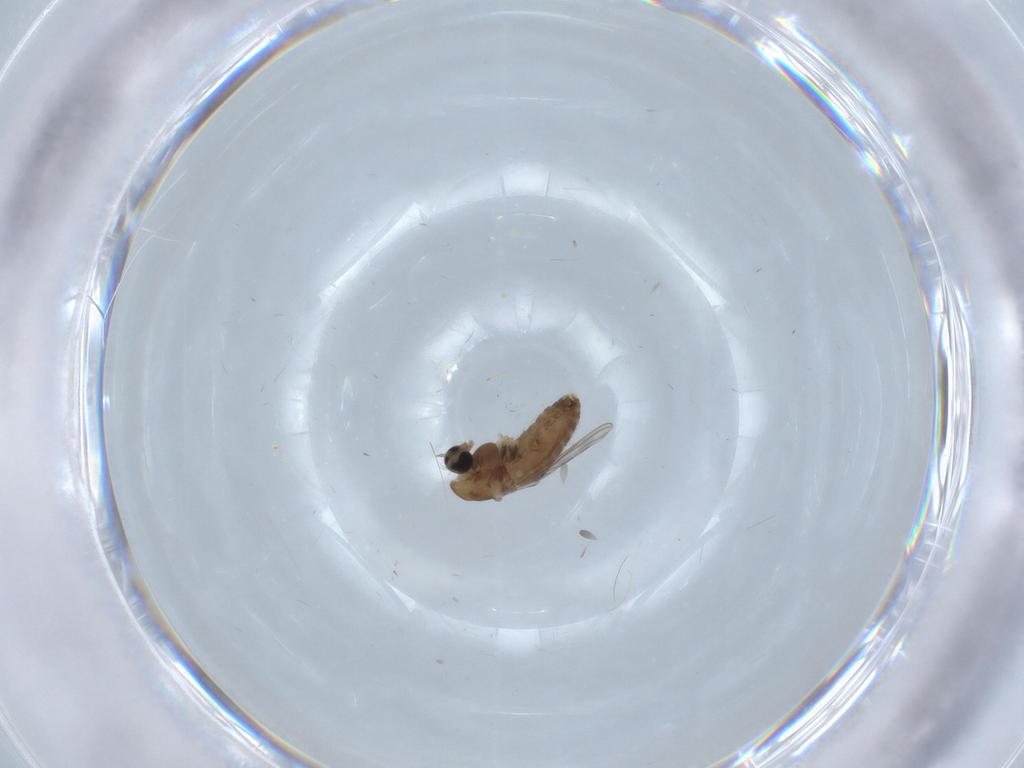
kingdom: Animalia
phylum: Arthropoda
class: Insecta
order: Diptera
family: Chironomidae
